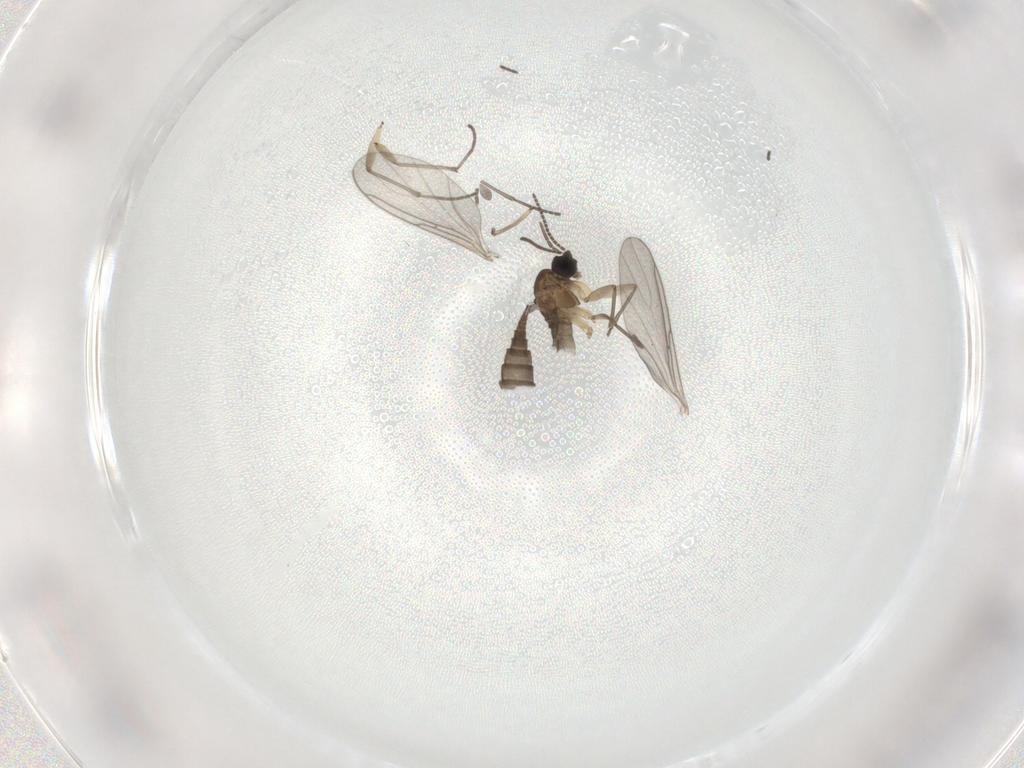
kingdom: Animalia
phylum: Arthropoda
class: Insecta
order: Diptera
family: Sciaridae
